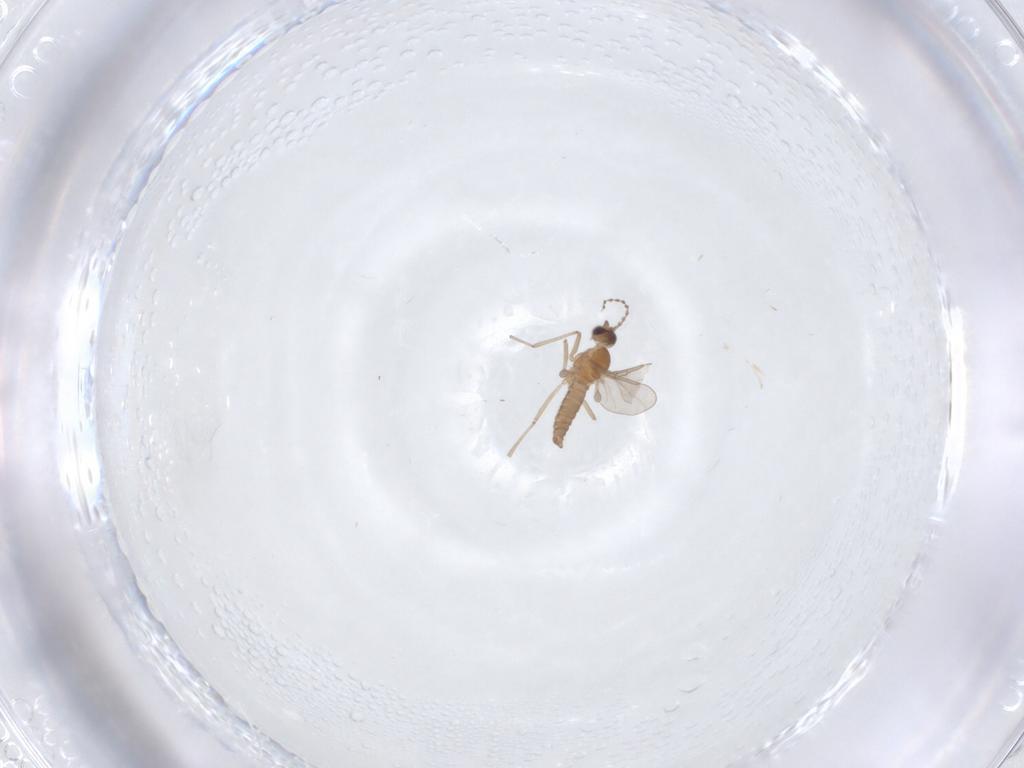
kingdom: Animalia
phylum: Arthropoda
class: Insecta
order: Diptera
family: Cecidomyiidae
